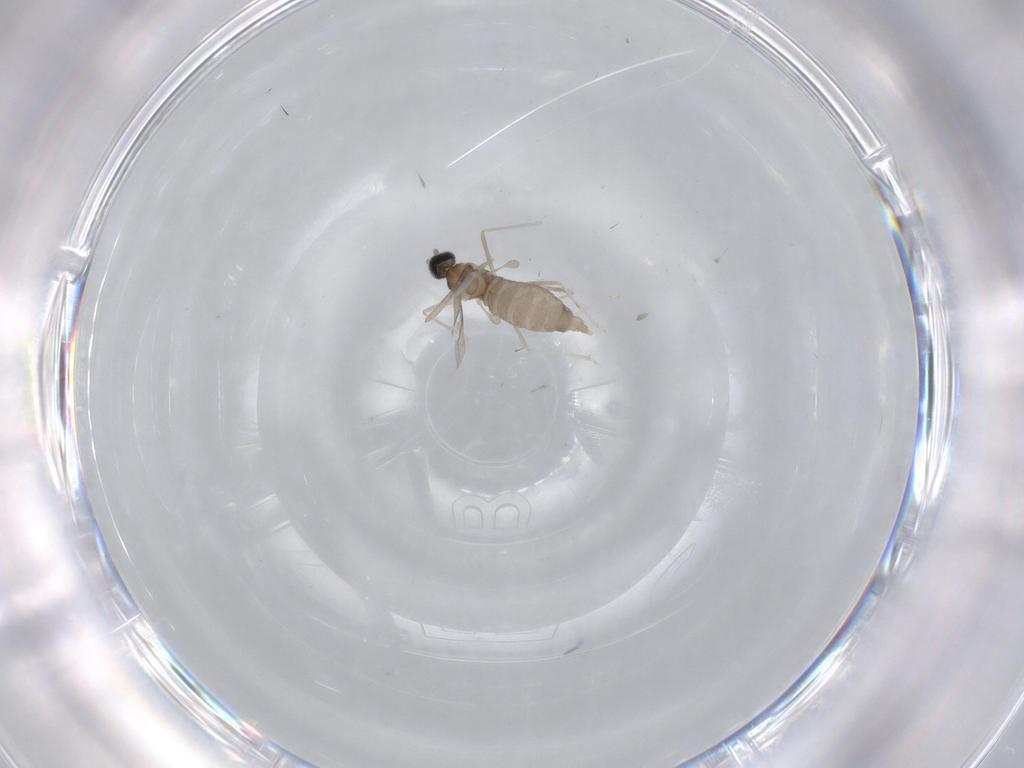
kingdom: Animalia
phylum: Arthropoda
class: Insecta
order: Diptera
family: Cecidomyiidae
